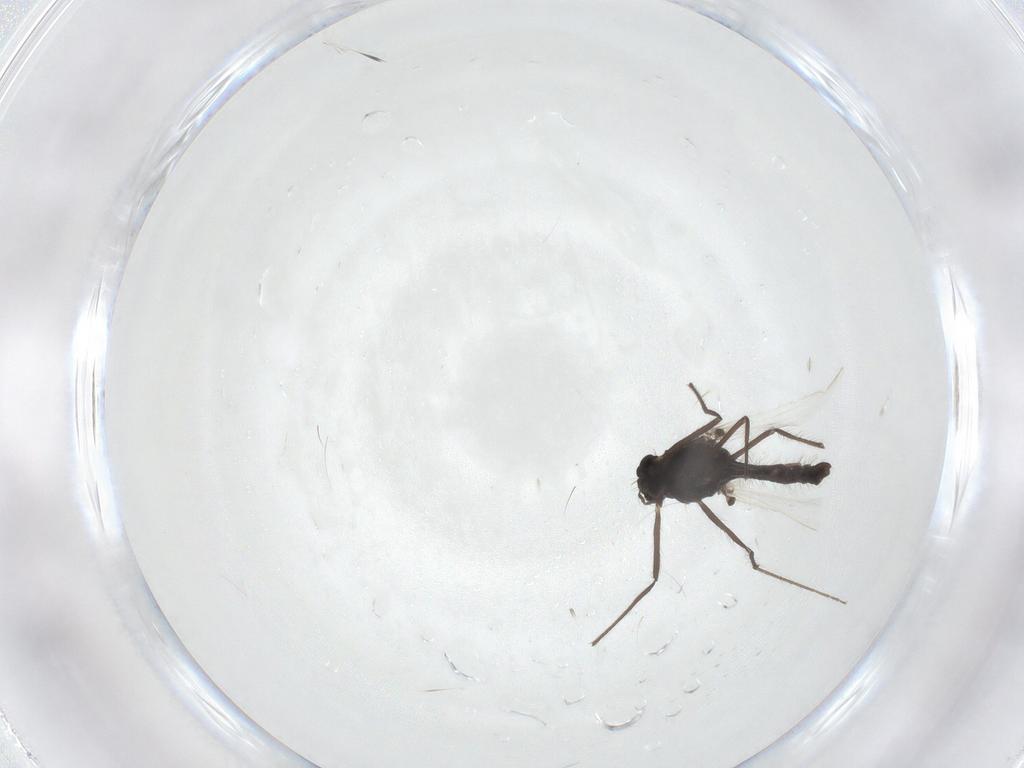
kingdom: Animalia
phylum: Arthropoda
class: Insecta
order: Diptera
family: Chironomidae
